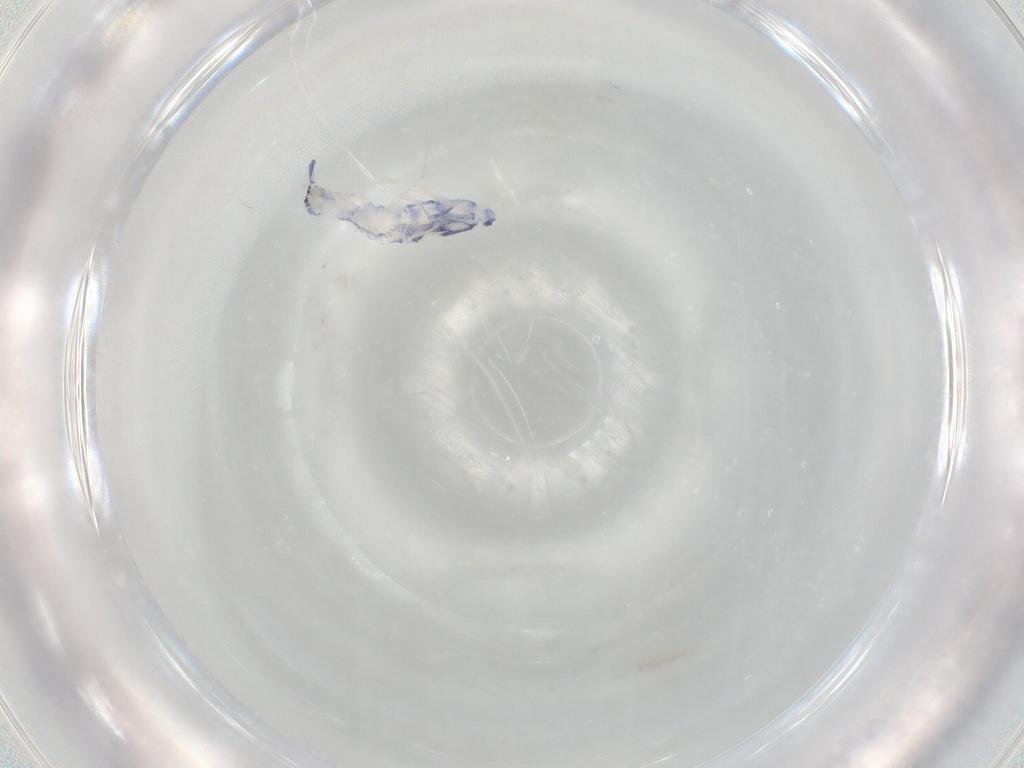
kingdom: Animalia
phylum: Arthropoda
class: Collembola
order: Entomobryomorpha
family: Entomobryidae
